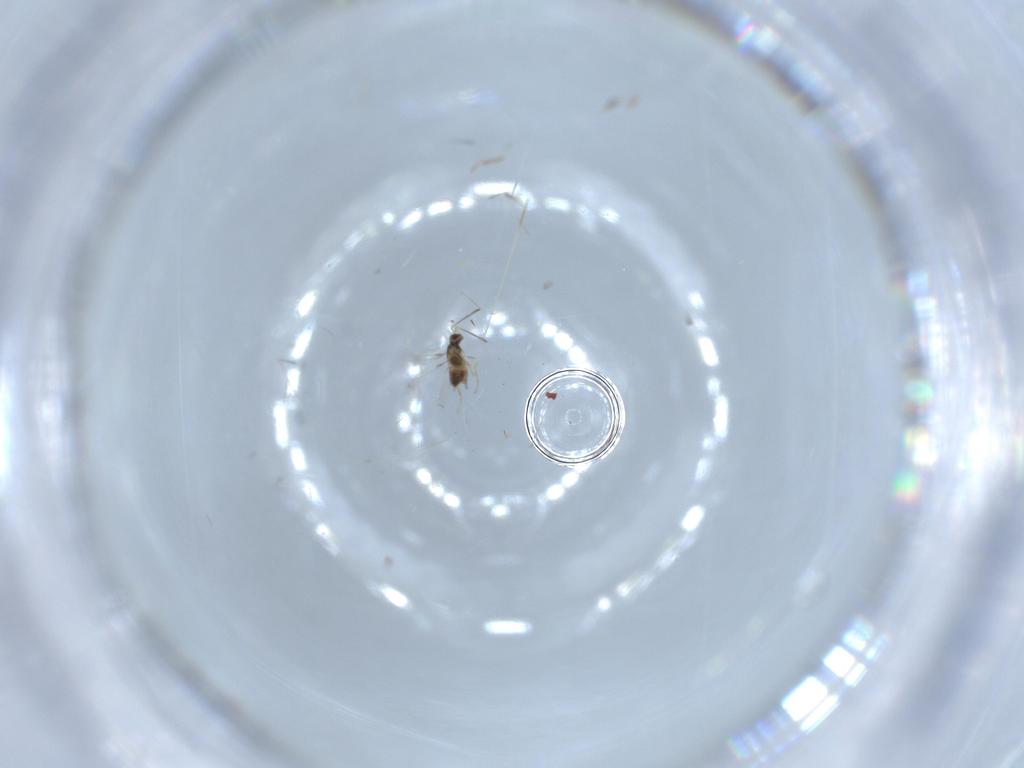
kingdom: Animalia
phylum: Arthropoda
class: Insecta
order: Hymenoptera
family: Mymaridae
